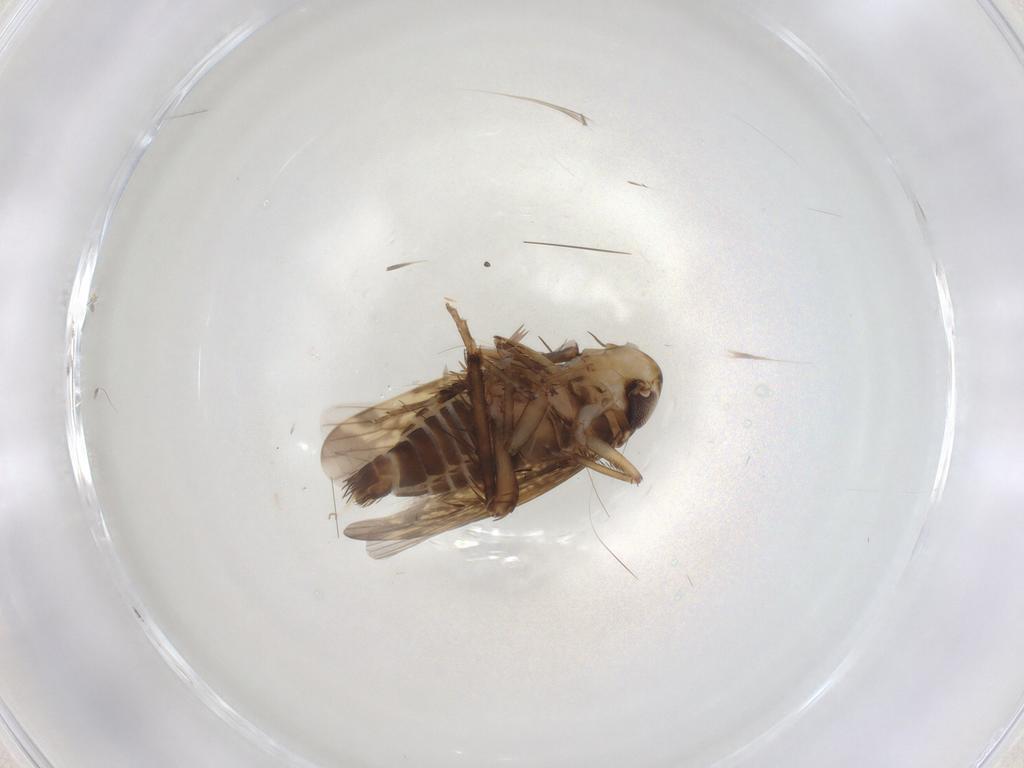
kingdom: Animalia
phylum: Arthropoda
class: Insecta
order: Hemiptera
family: Cicadellidae
